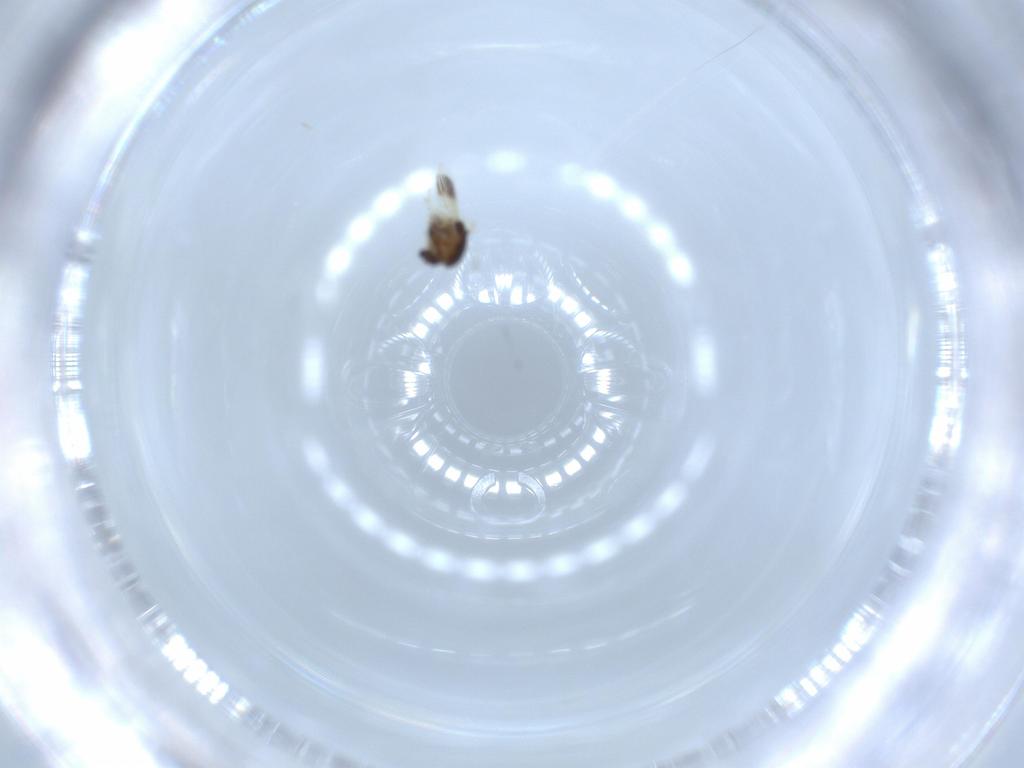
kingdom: Animalia
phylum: Arthropoda
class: Insecta
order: Diptera
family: Chironomidae
